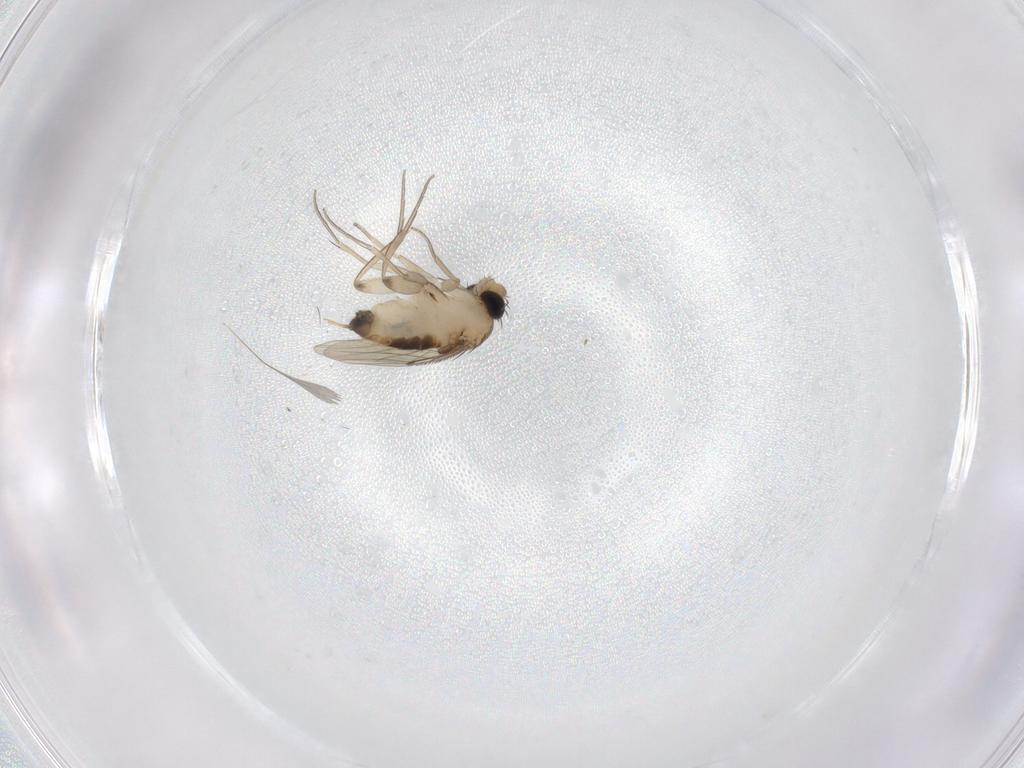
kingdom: Animalia
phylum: Arthropoda
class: Insecta
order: Diptera
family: Phoridae
